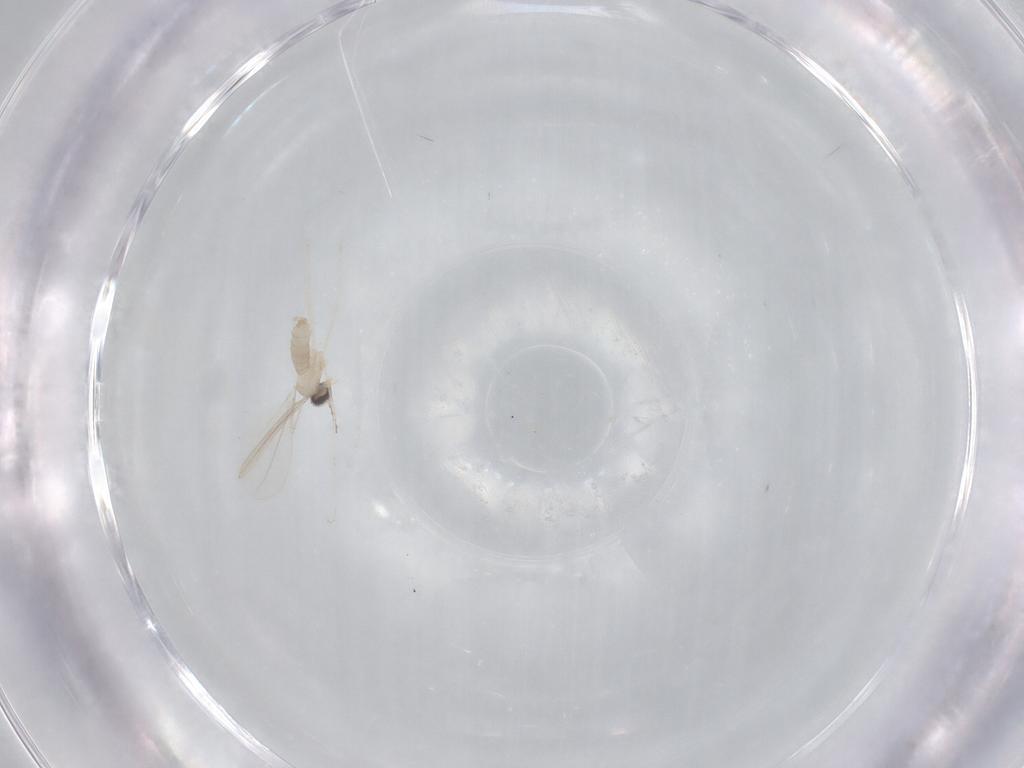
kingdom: Animalia
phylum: Arthropoda
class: Insecta
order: Diptera
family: Cecidomyiidae
